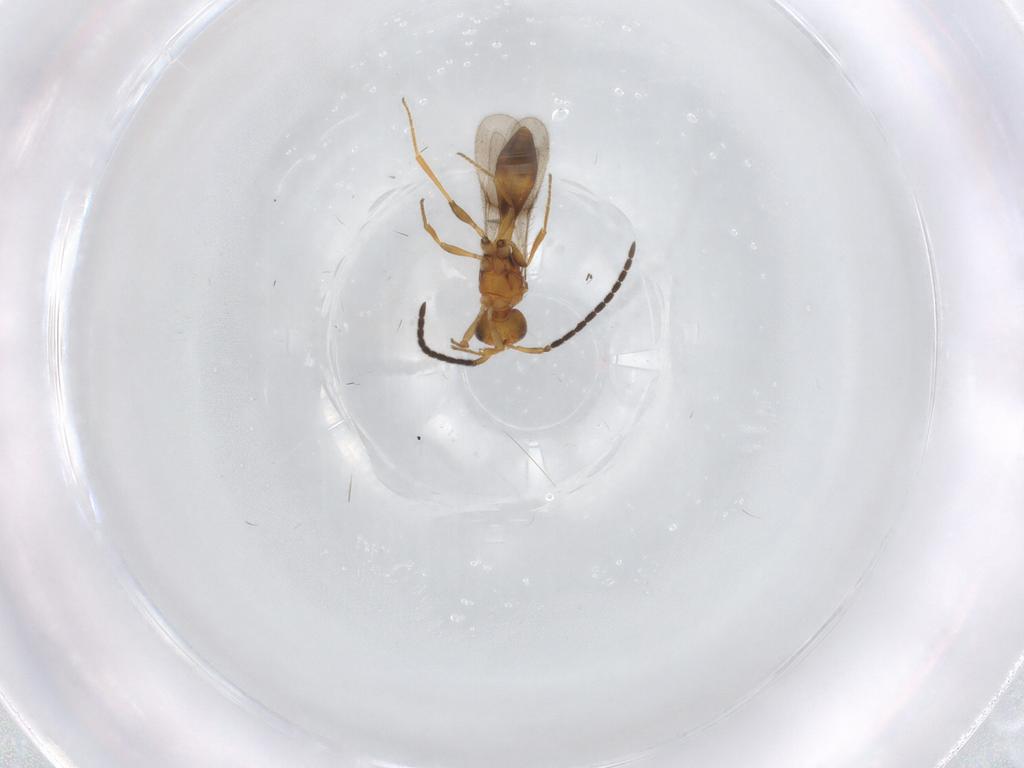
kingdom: Animalia
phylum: Arthropoda
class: Insecta
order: Hymenoptera
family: Scelionidae
